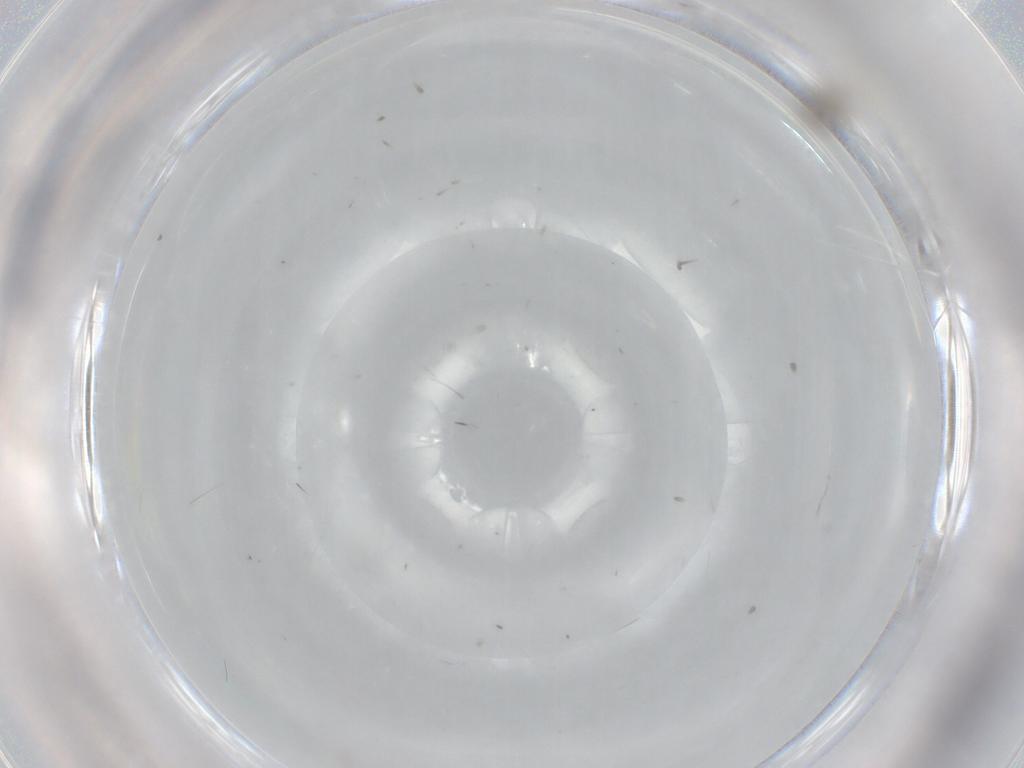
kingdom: Animalia
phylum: Arthropoda
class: Insecta
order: Diptera
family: Cecidomyiidae
